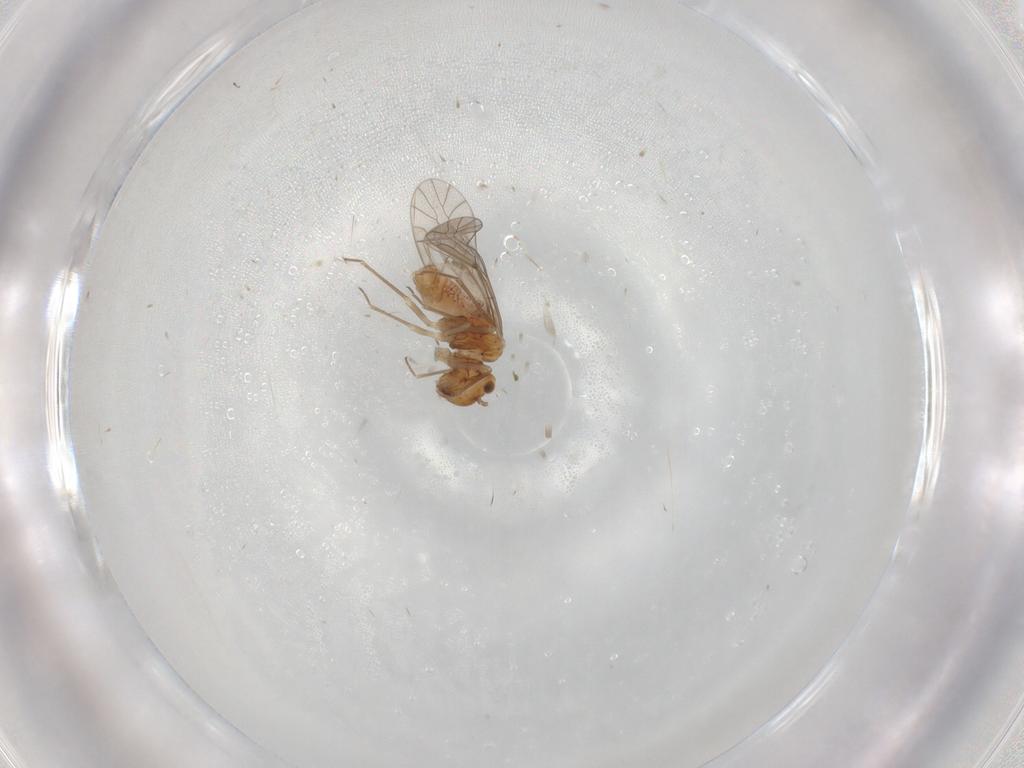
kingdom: Animalia
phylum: Arthropoda
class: Insecta
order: Psocodea
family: Lachesillidae
